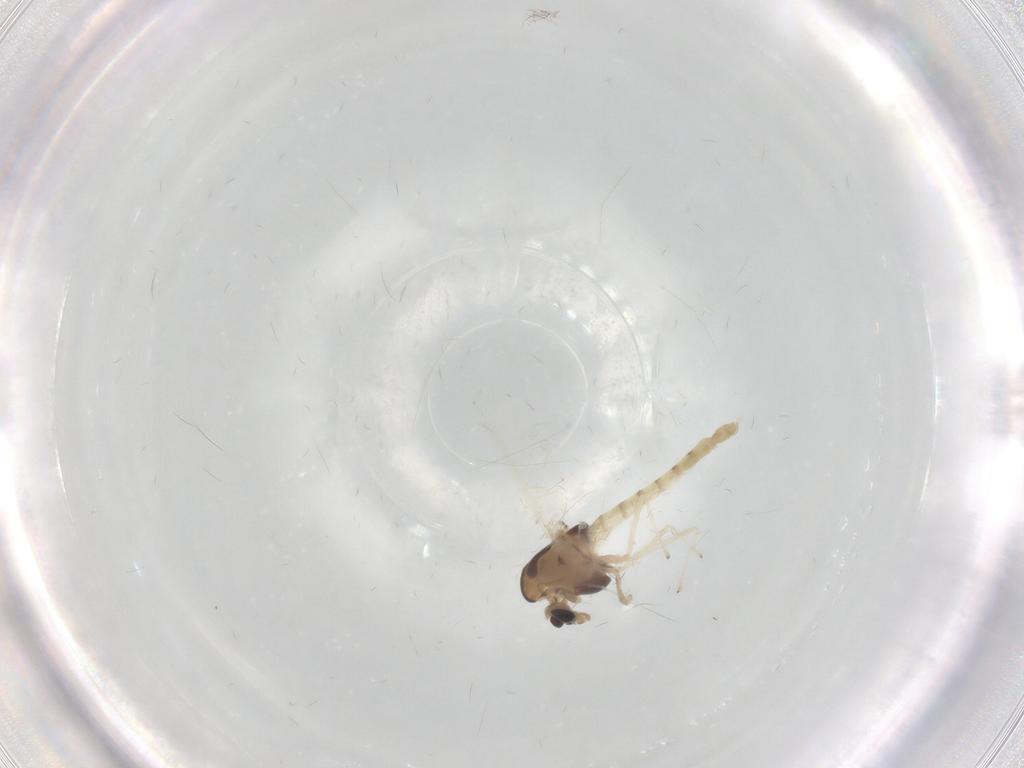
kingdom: Animalia
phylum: Arthropoda
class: Insecta
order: Diptera
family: Chironomidae
